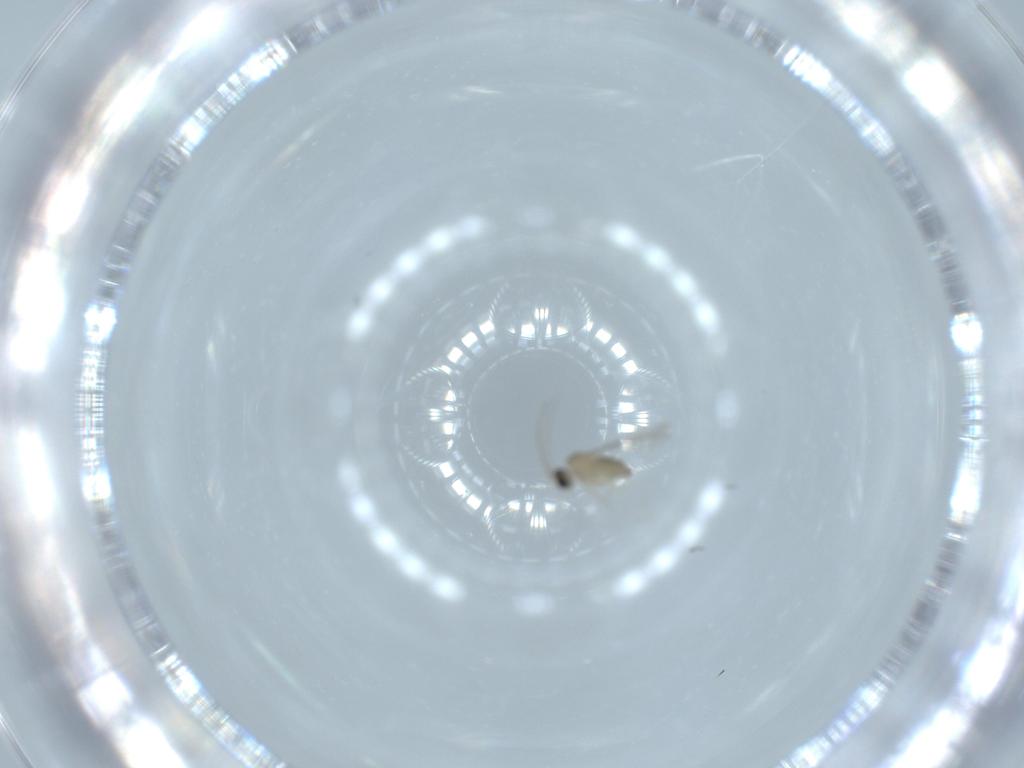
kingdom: Animalia
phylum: Arthropoda
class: Insecta
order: Diptera
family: Cecidomyiidae
